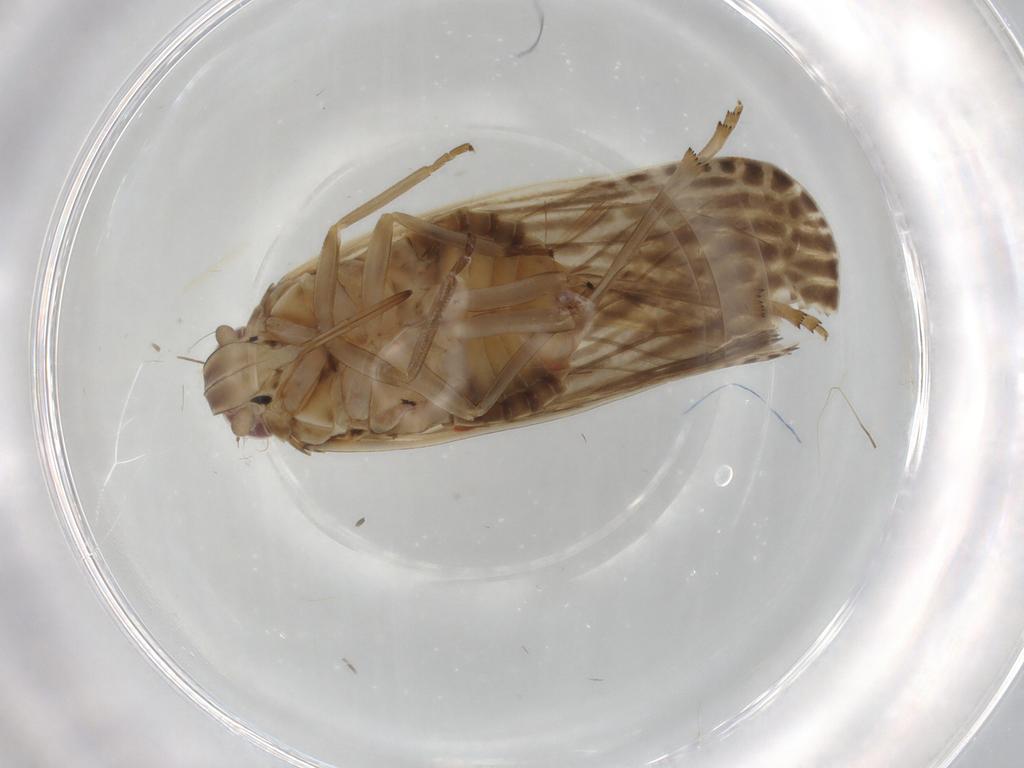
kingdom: Animalia
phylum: Arthropoda
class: Insecta
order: Hemiptera
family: Achilidae
